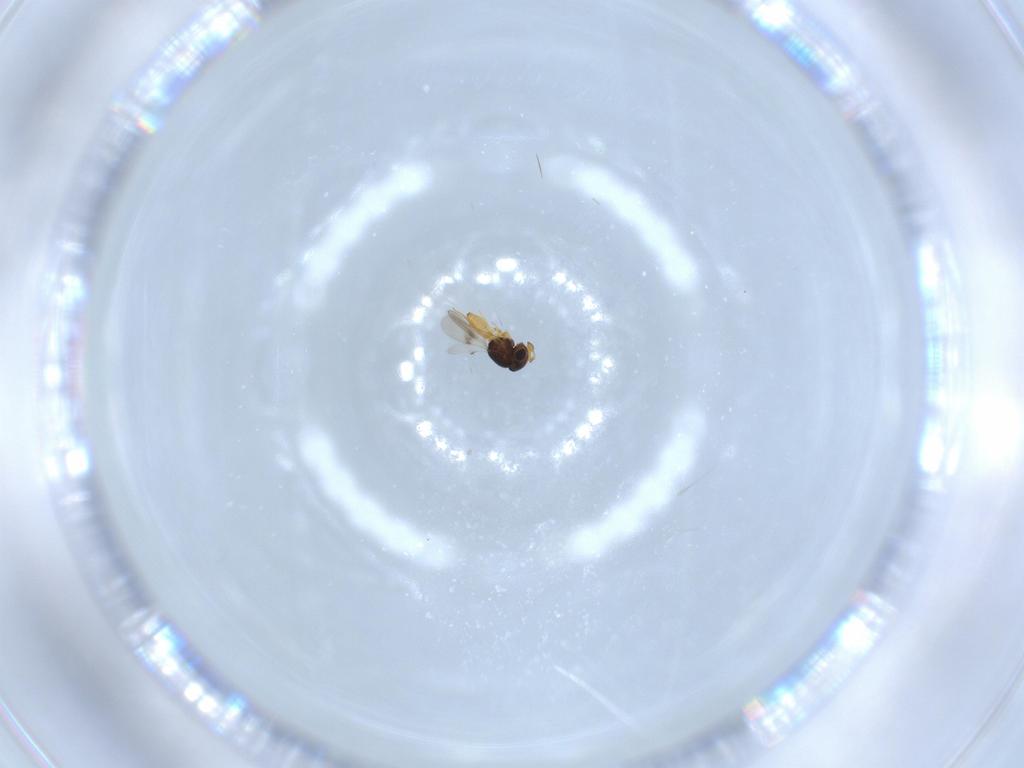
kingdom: Animalia
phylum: Arthropoda
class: Insecta
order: Hymenoptera
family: Scelionidae
